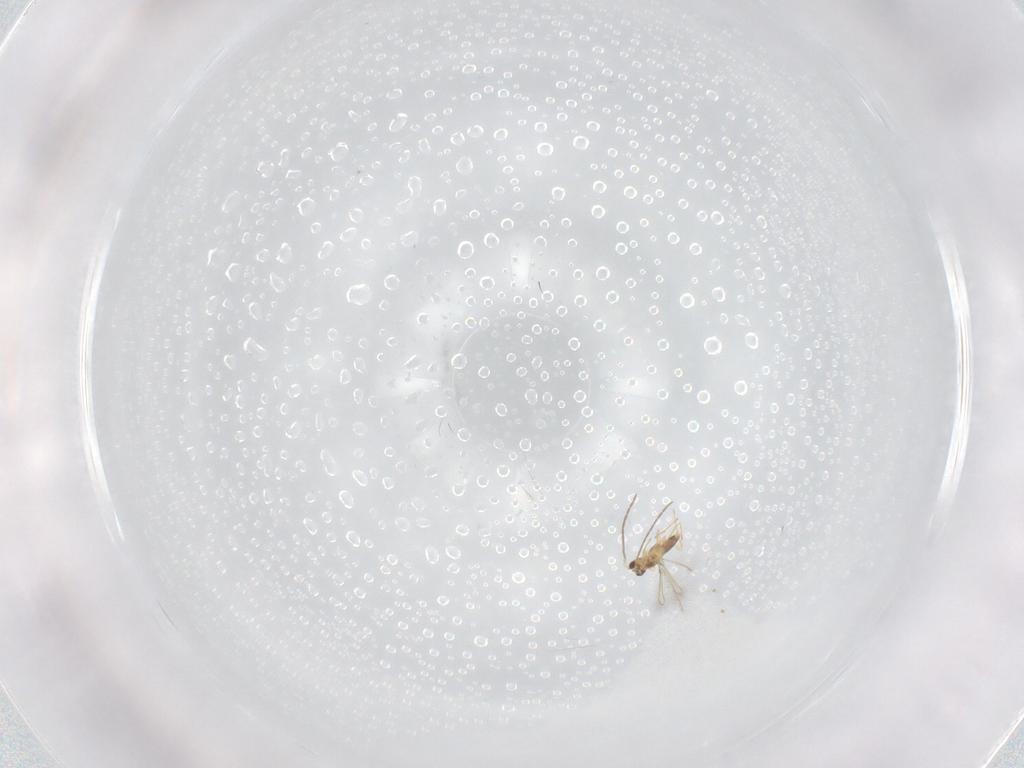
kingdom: Animalia
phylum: Arthropoda
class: Insecta
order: Hymenoptera
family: Mymaridae
